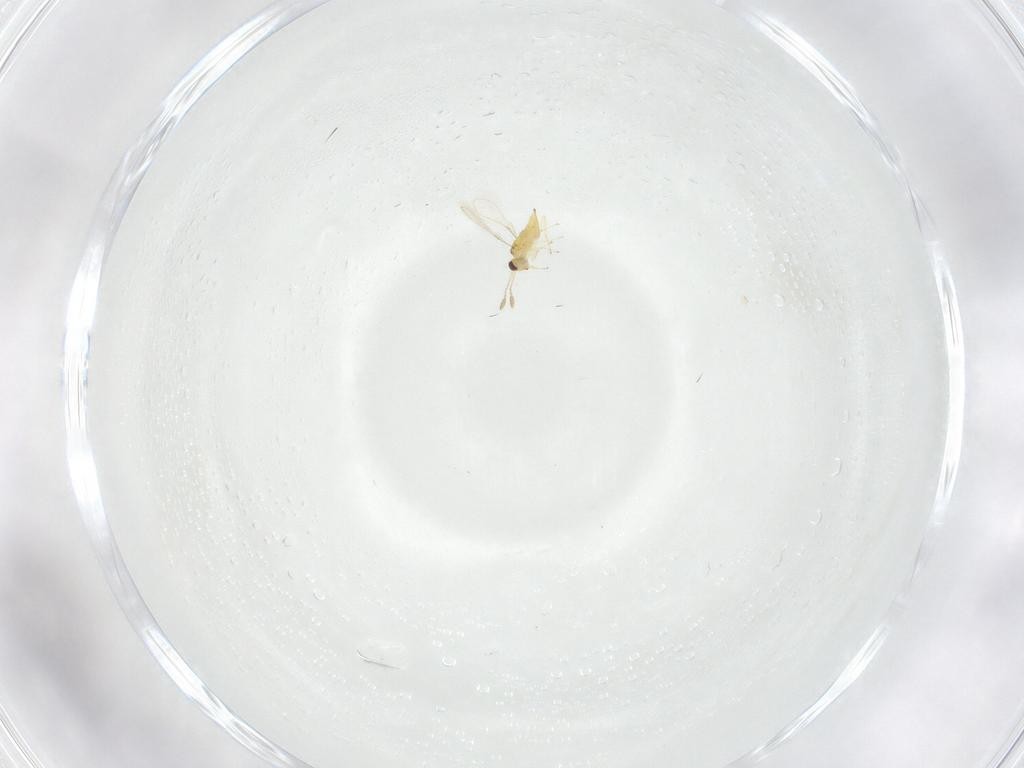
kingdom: Animalia
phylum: Arthropoda
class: Insecta
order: Hymenoptera
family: Mymaridae
